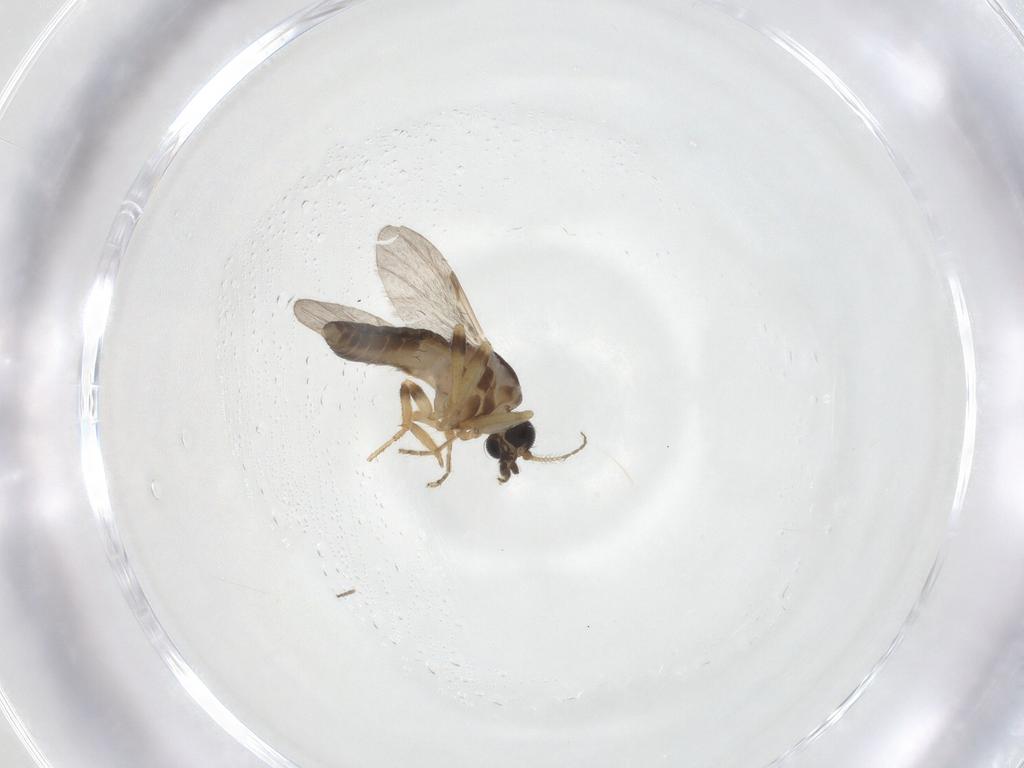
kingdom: Animalia
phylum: Arthropoda
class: Insecta
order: Diptera
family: Ceratopogonidae
